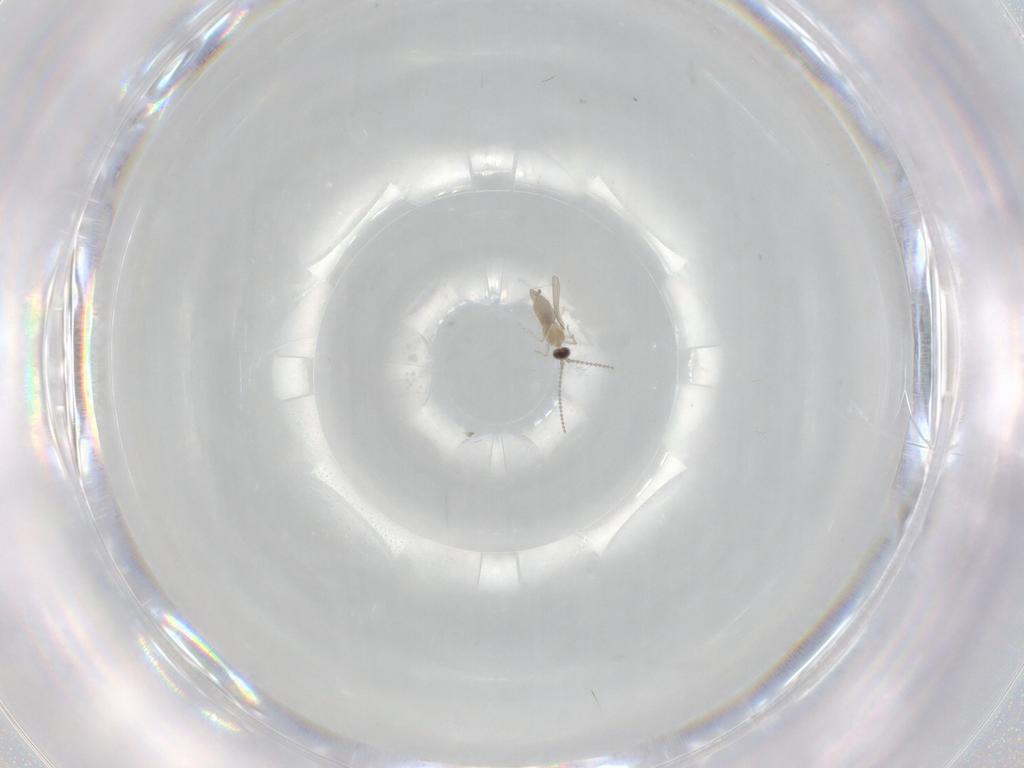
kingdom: Animalia
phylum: Arthropoda
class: Insecta
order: Diptera
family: Cecidomyiidae
